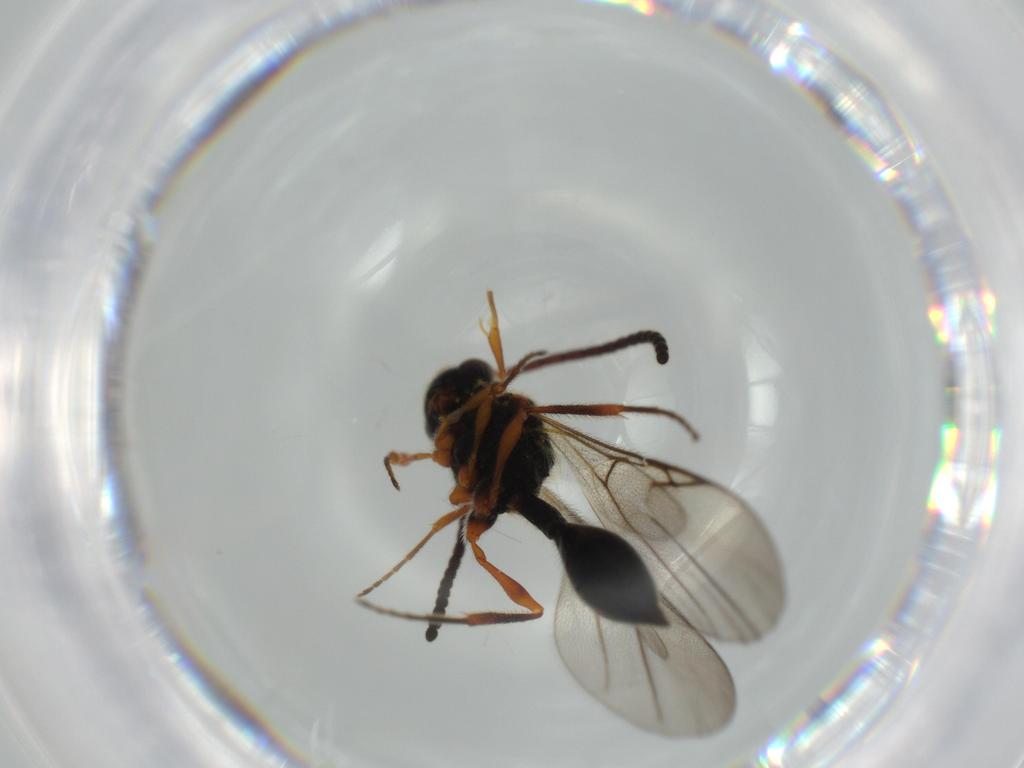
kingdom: Animalia
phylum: Arthropoda
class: Insecta
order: Hymenoptera
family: Diapriidae
